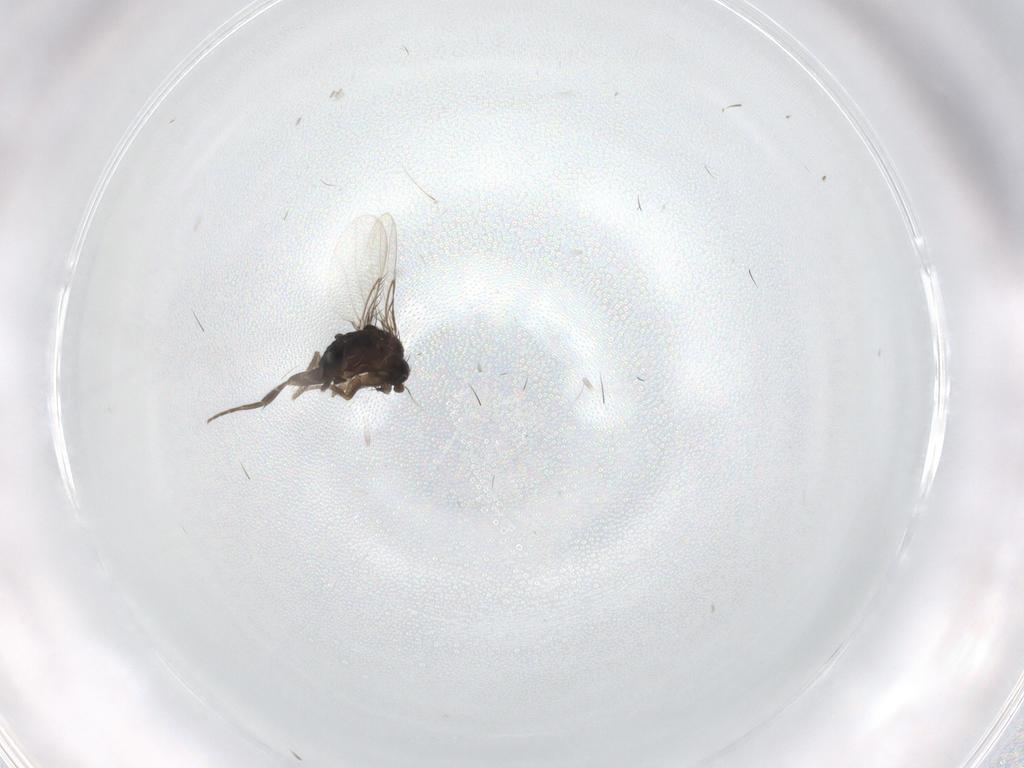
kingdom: Animalia
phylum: Arthropoda
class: Insecta
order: Diptera
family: Phoridae
